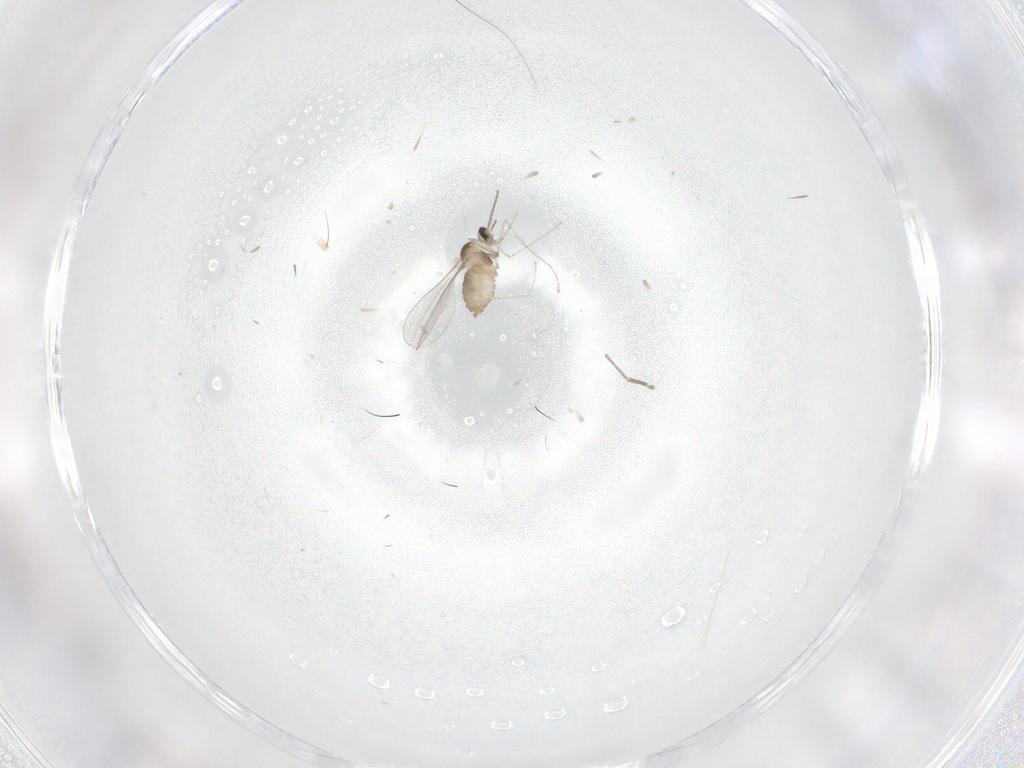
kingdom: Animalia
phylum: Arthropoda
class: Insecta
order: Diptera
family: Cecidomyiidae
